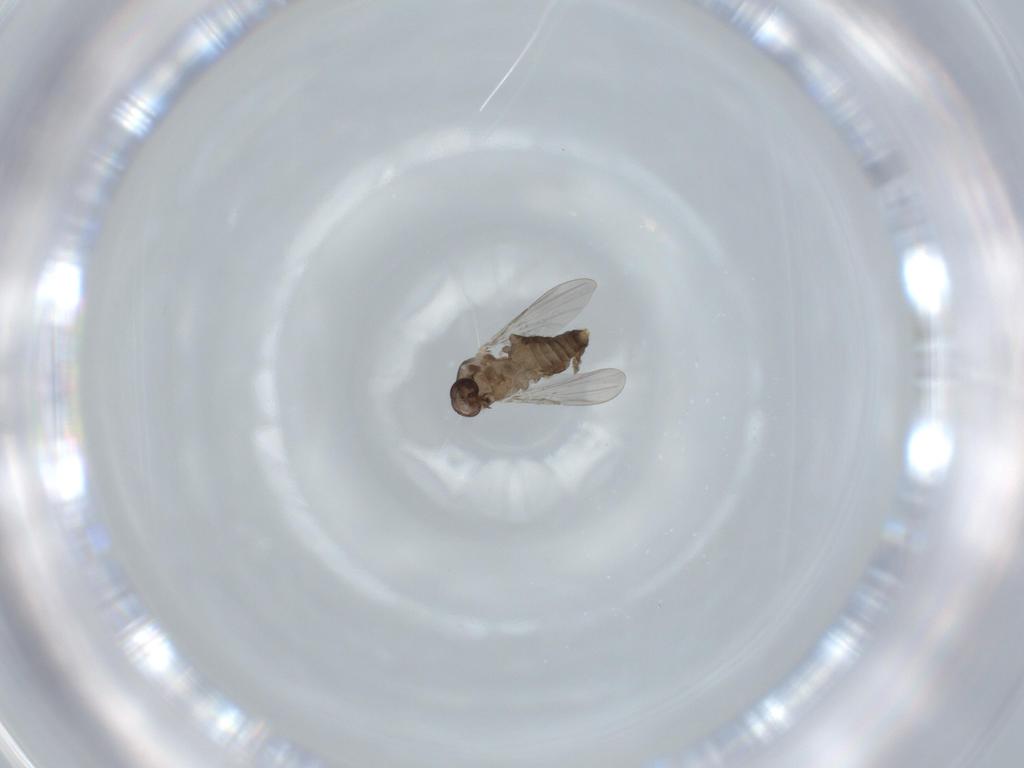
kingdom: Animalia
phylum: Arthropoda
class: Insecta
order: Diptera
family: Ceratopogonidae
